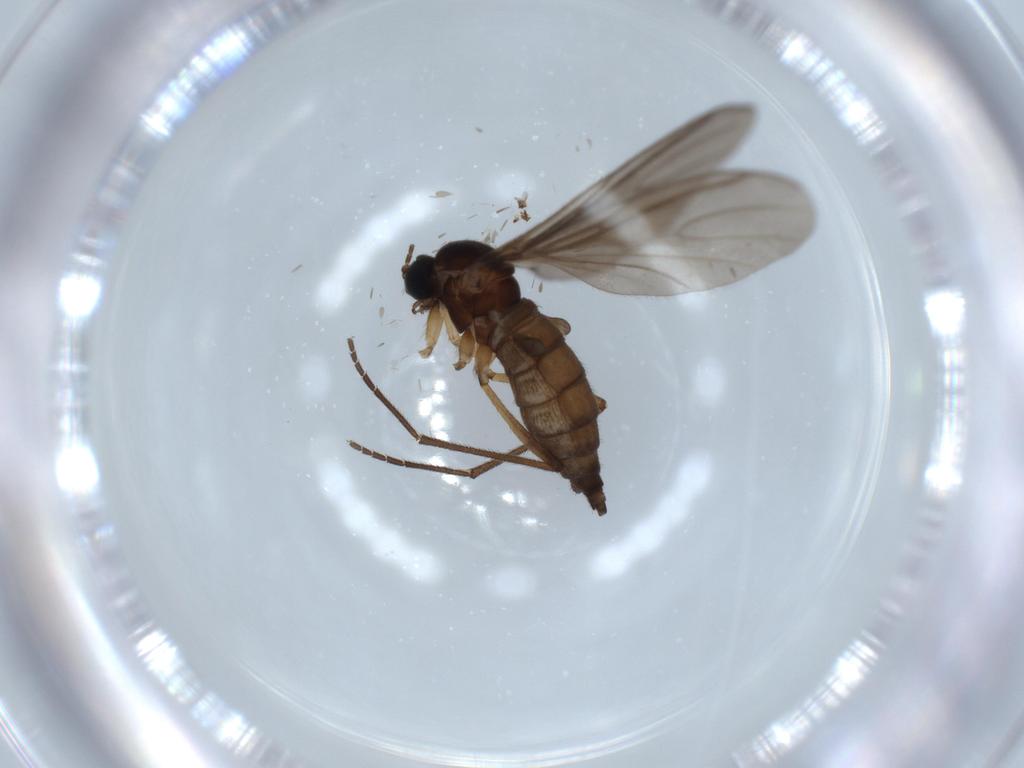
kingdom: Animalia
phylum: Arthropoda
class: Insecta
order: Diptera
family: Sciaridae
